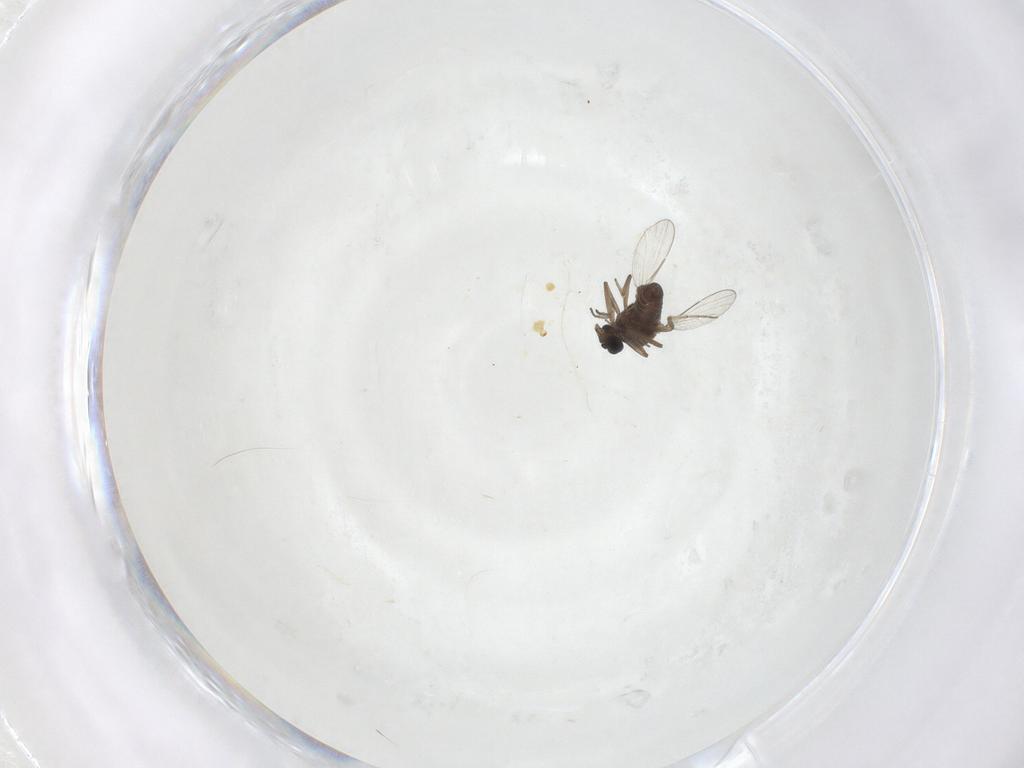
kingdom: Animalia
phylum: Arthropoda
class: Insecta
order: Diptera
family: Ceratopogonidae
